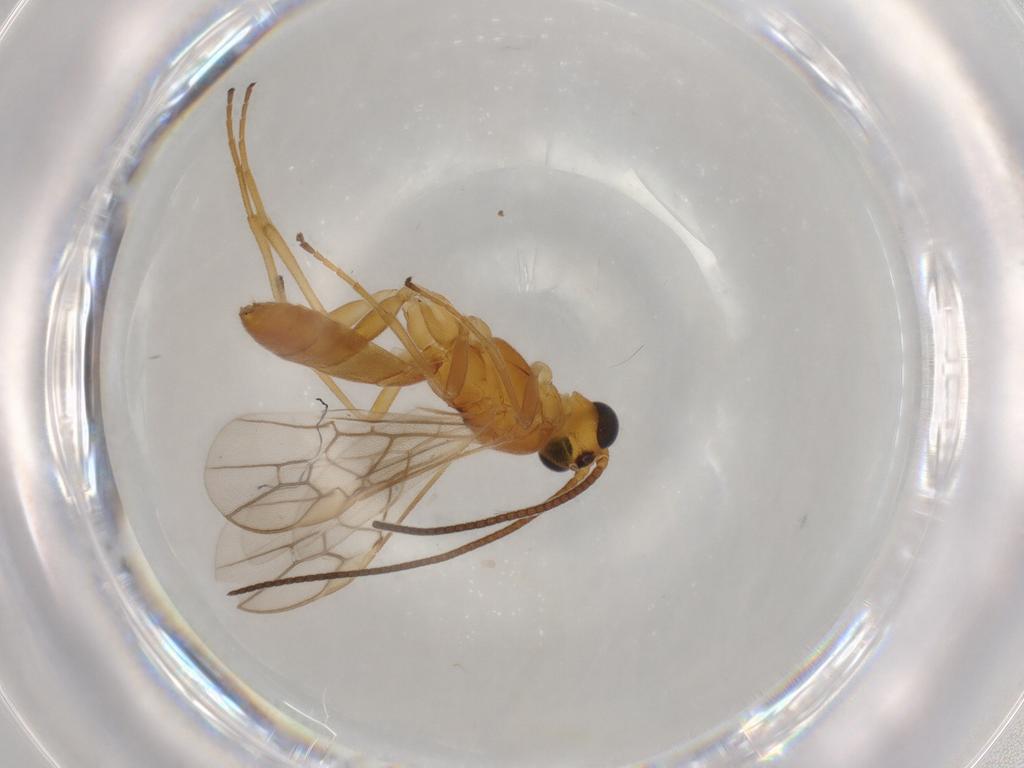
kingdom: Animalia
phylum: Arthropoda
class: Insecta
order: Hymenoptera
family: Braconidae
